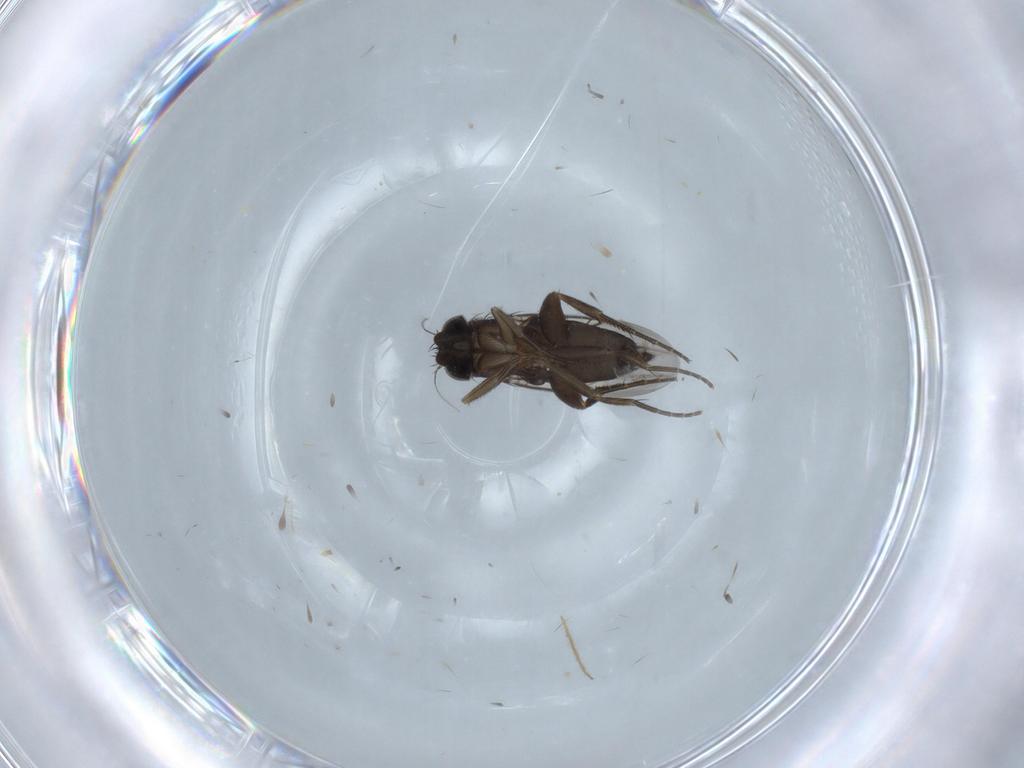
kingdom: Animalia
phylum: Arthropoda
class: Insecta
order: Diptera
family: Phoridae
